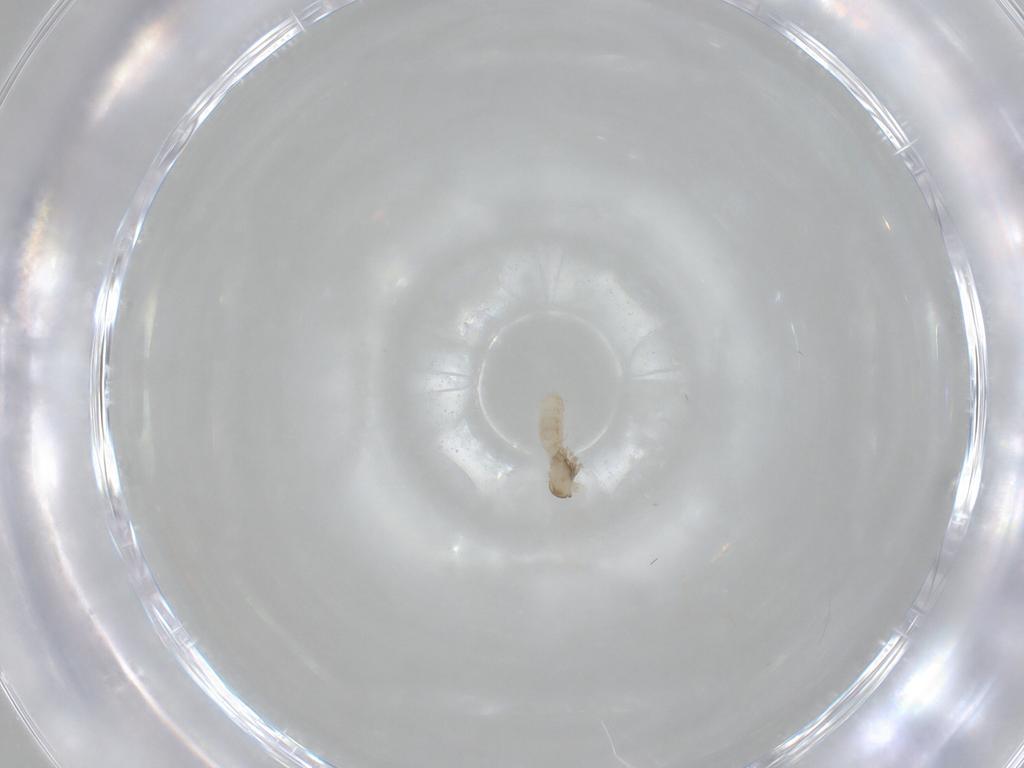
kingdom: Animalia
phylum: Arthropoda
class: Insecta
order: Diptera
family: Cecidomyiidae
